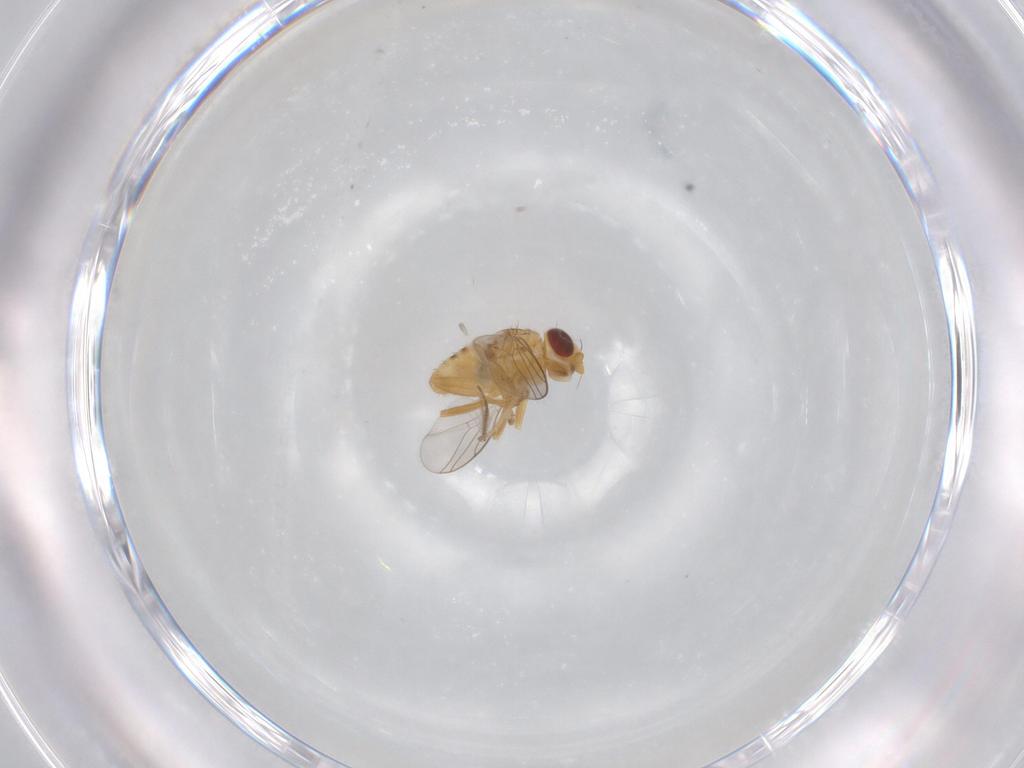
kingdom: Animalia
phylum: Arthropoda
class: Insecta
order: Diptera
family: Chloropidae
